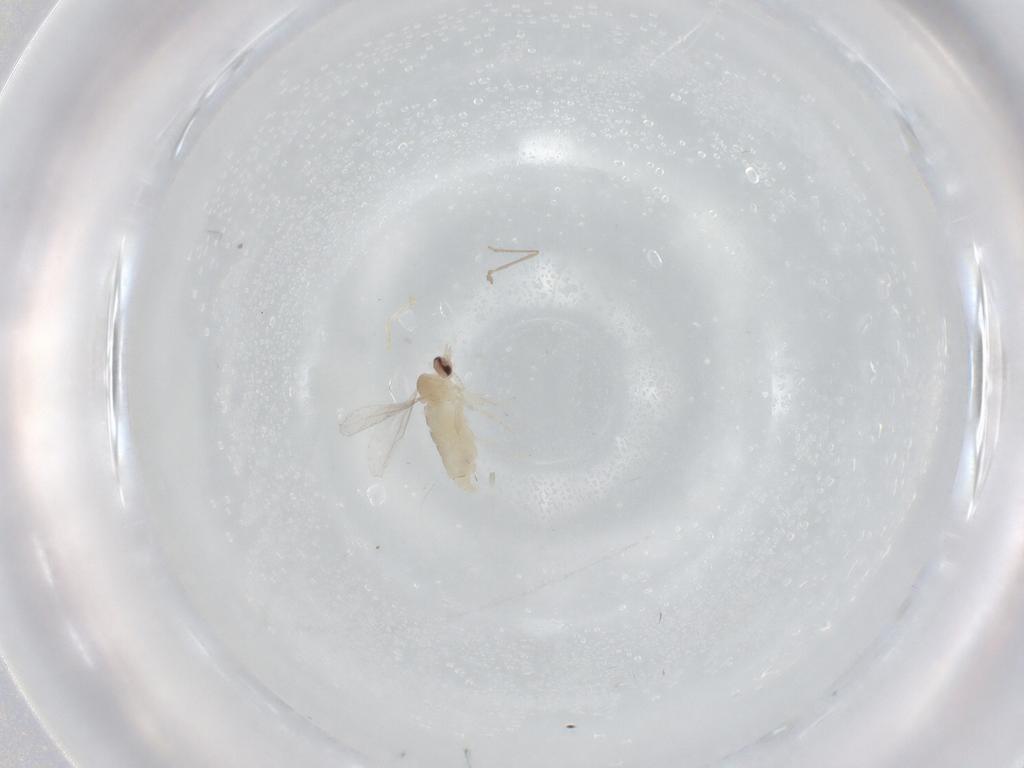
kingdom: Animalia
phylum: Arthropoda
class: Insecta
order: Diptera
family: Cecidomyiidae
